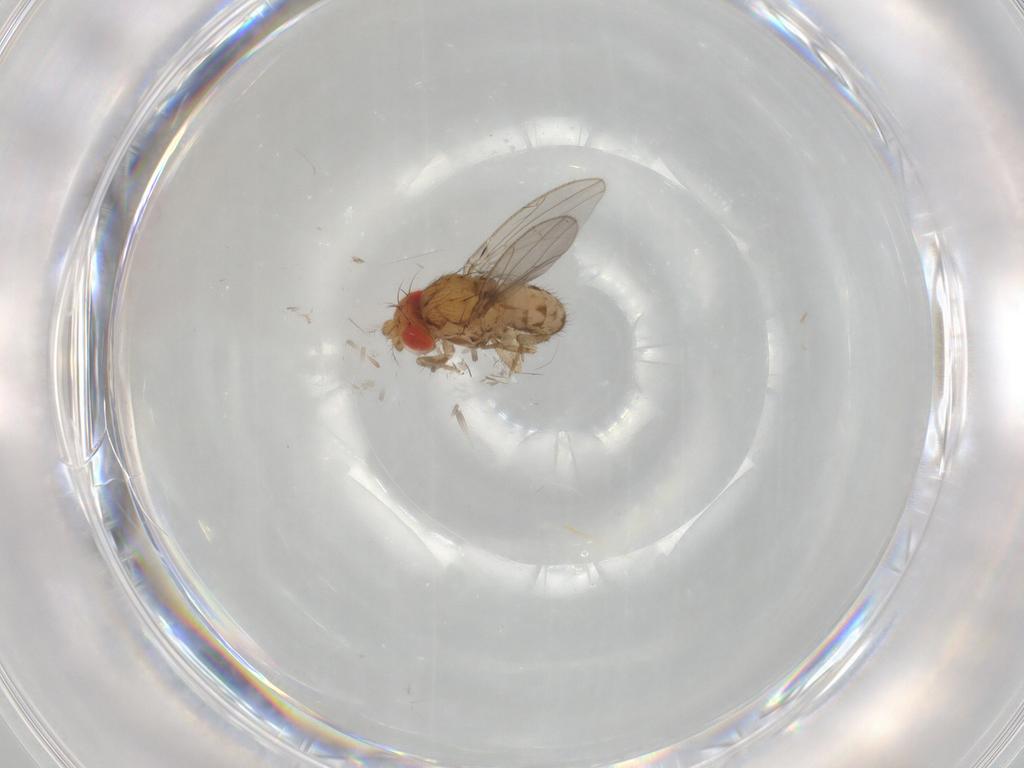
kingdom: Animalia
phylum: Arthropoda
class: Insecta
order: Diptera
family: Drosophilidae
